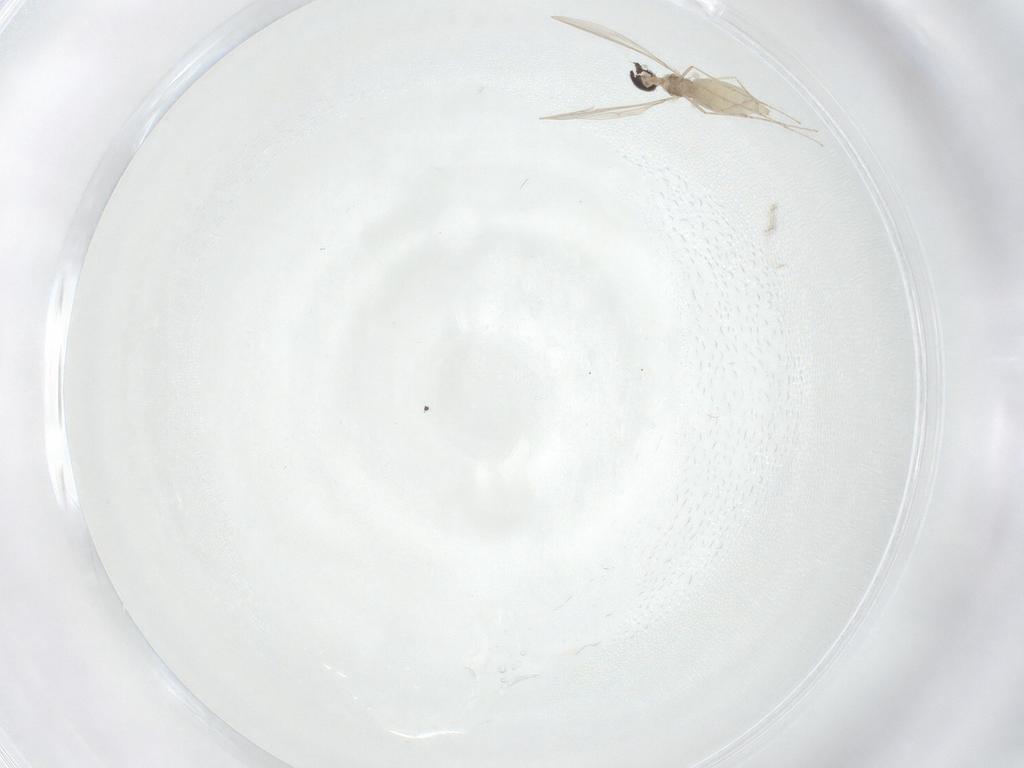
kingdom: Animalia
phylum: Arthropoda
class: Insecta
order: Diptera
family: Cecidomyiidae
